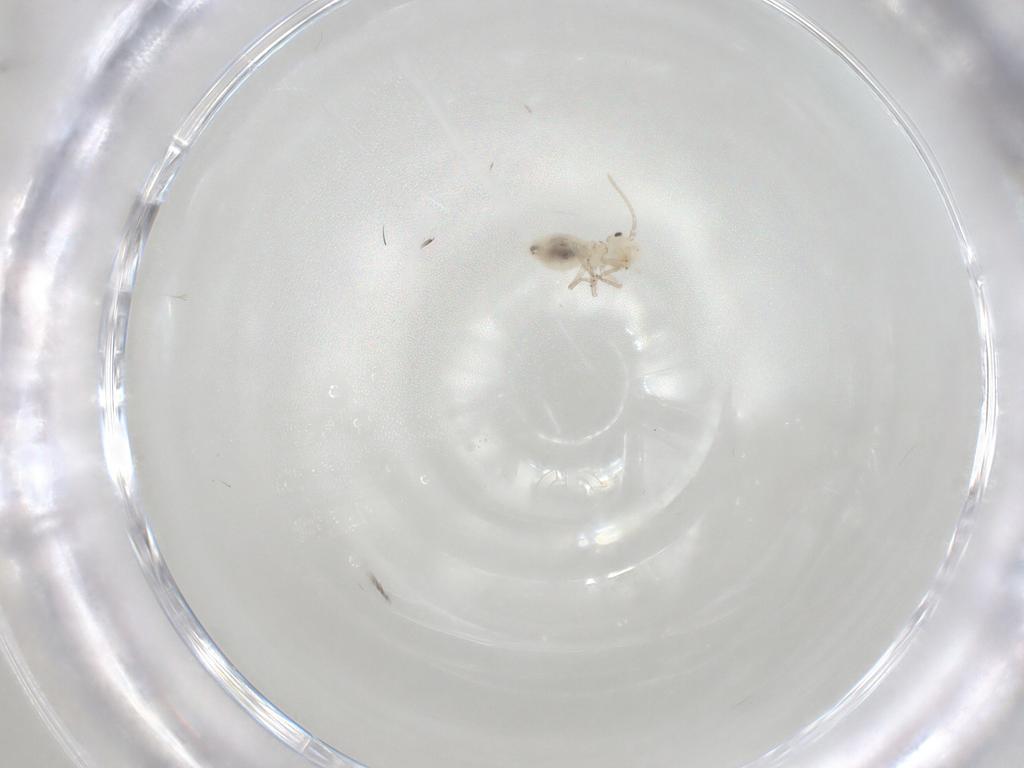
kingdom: Animalia
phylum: Arthropoda
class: Insecta
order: Psocodea
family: Caeciliusidae
